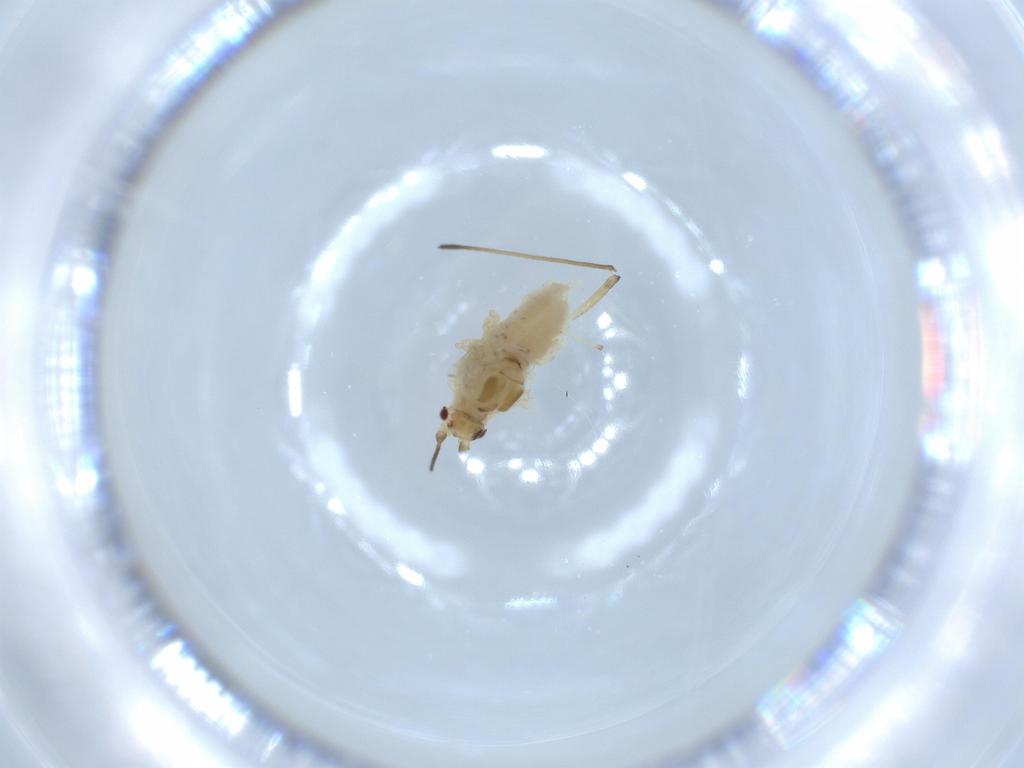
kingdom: Animalia
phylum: Arthropoda
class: Insecta
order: Hemiptera
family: Aphididae
